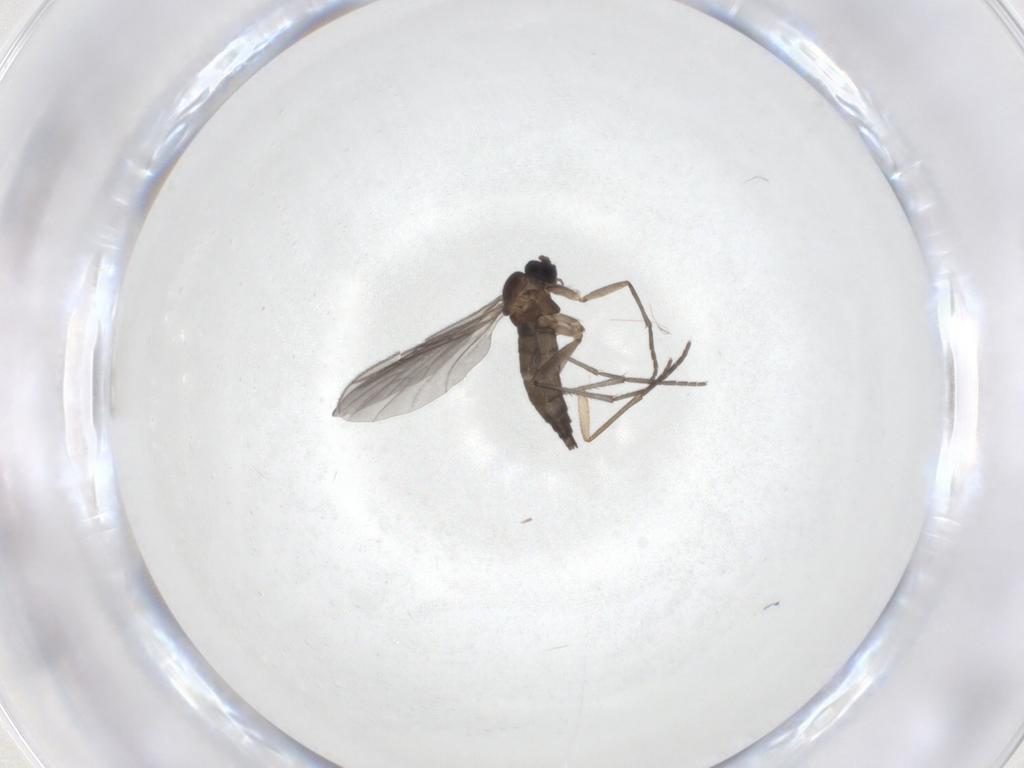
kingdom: Animalia
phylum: Arthropoda
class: Insecta
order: Diptera
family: Sciaridae
